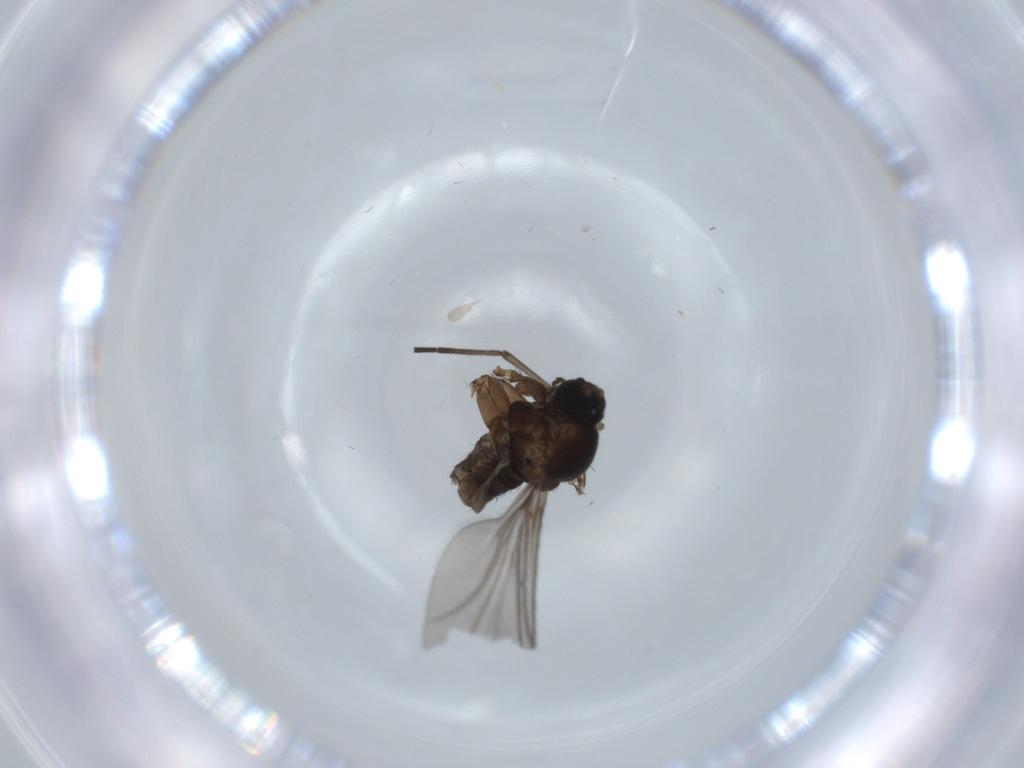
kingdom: Animalia
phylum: Arthropoda
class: Insecta
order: Diptera
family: Sciaridae
